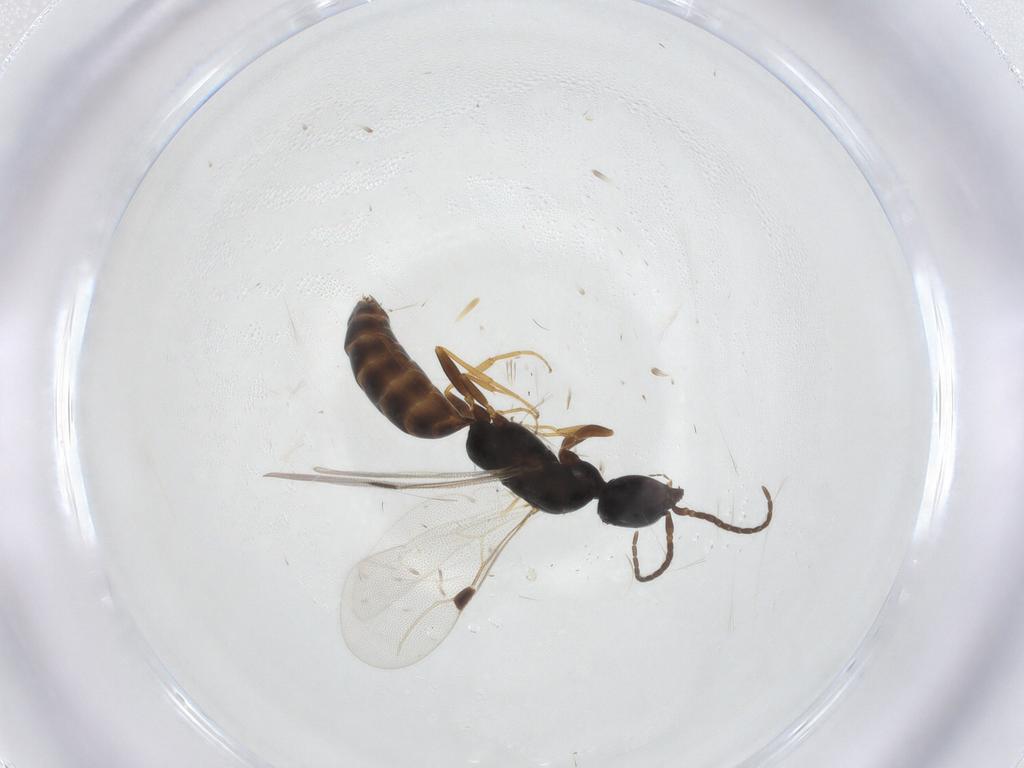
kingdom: Animalia
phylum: Arthropoda
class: Insecta
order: Hymenoptera
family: Bethylidae
